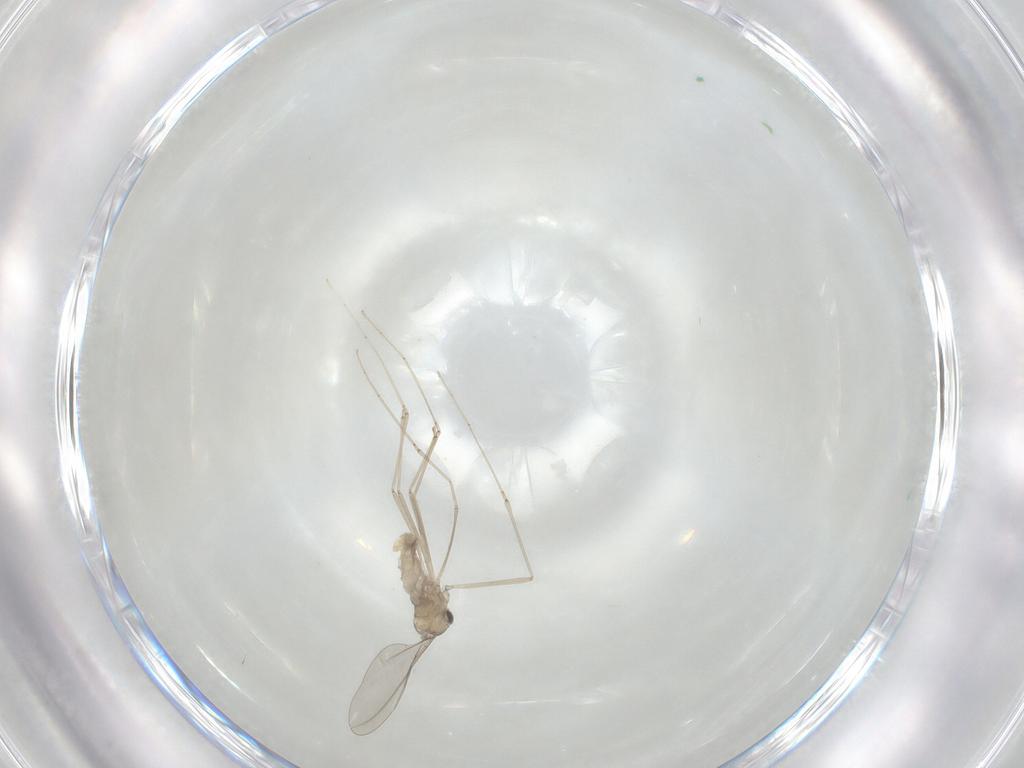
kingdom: Animalia
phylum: Arthropoda
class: Insecta
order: Diptera
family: Cecidomyiidae
